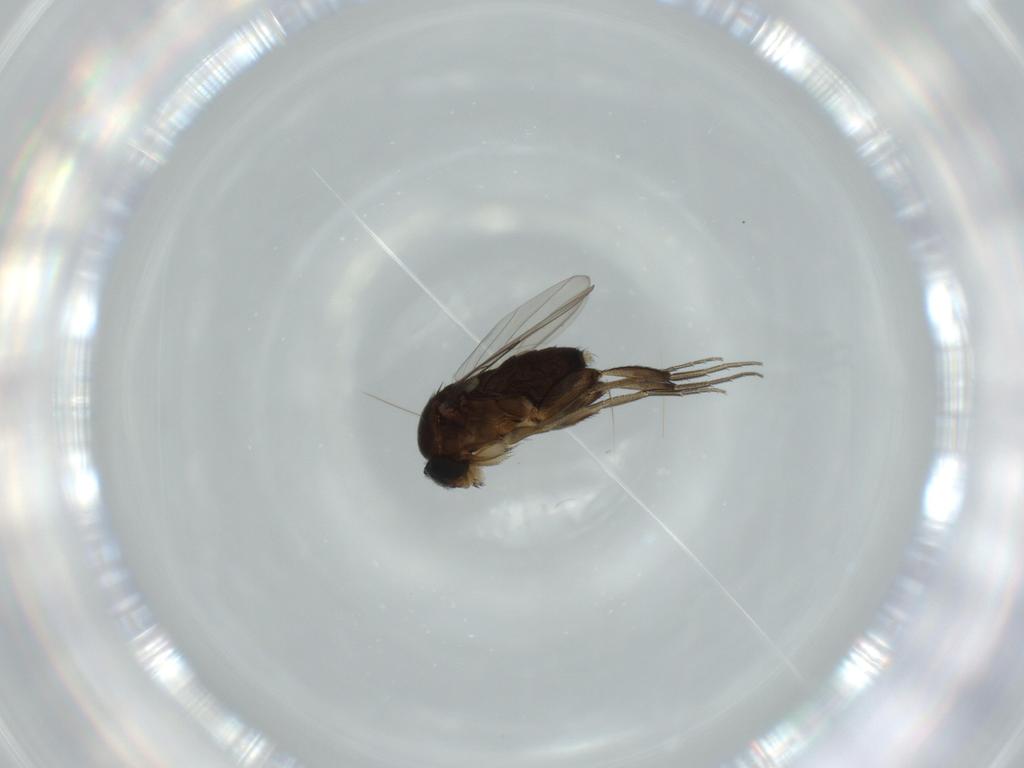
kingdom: Animalia
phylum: Arthropoda
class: Insecta
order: Diptera
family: Phoridae
